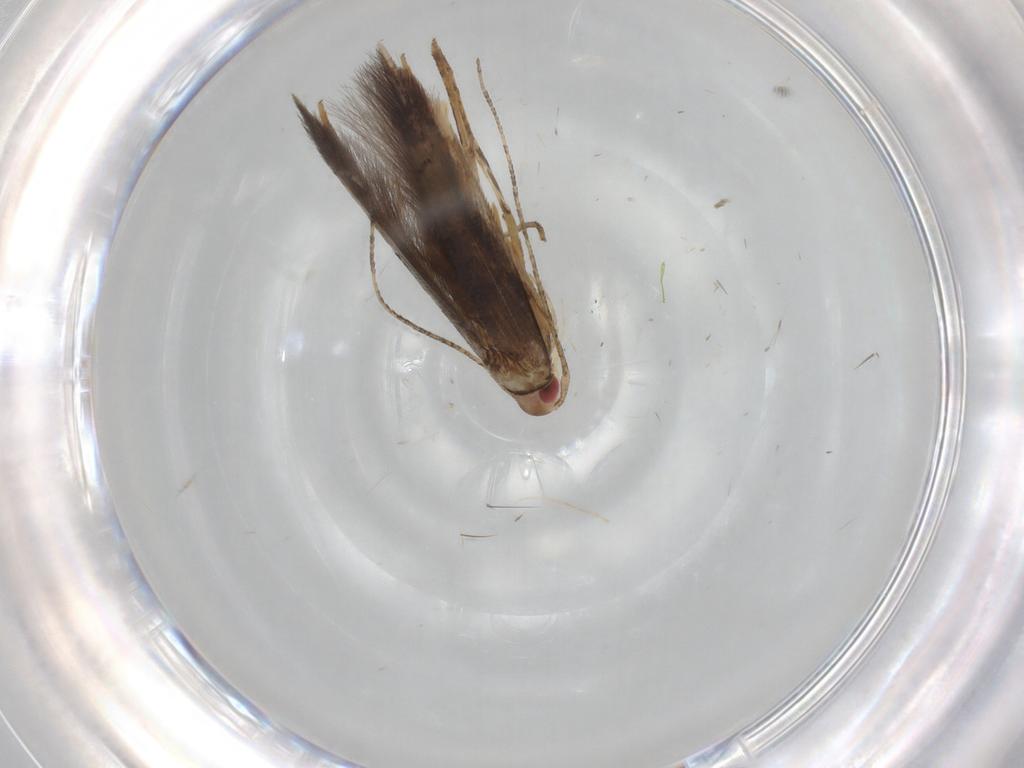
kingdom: Animalia
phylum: Arthropoda
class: Insecta
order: Lepidoptera
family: Cosmopterigidae
